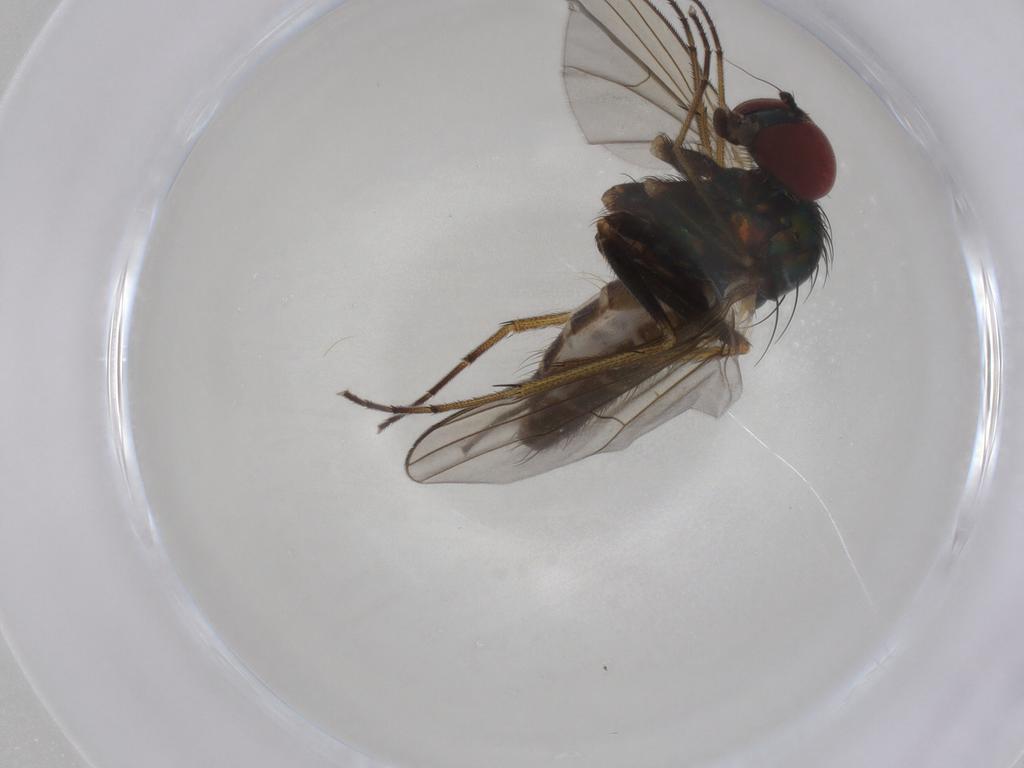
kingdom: Animalia
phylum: Arthropoda
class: Insecta
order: Diptera
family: Dolichopodidae
